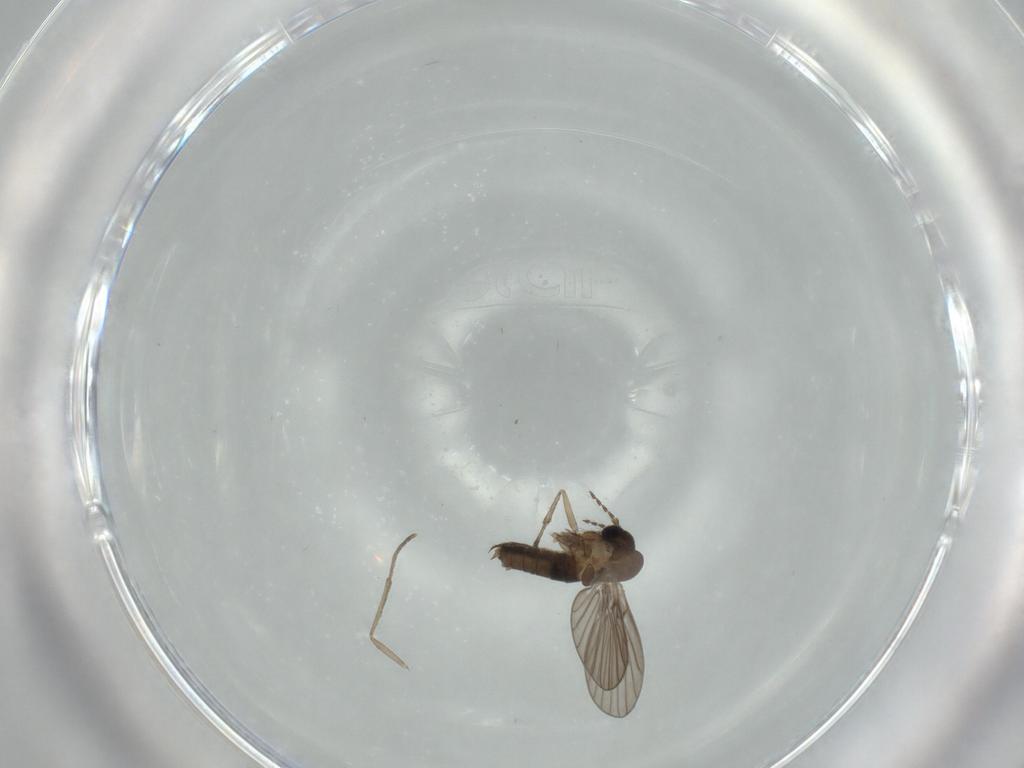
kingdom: Animalia
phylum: Arthropoda
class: Insecta
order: Diptera
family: Psychodidae
